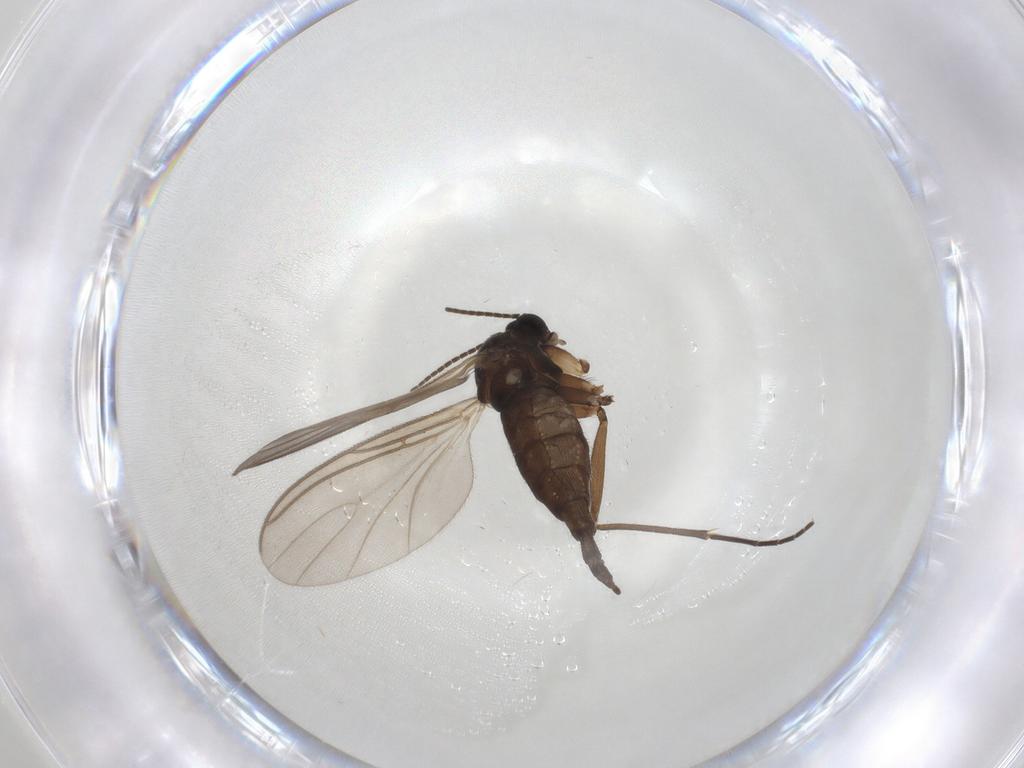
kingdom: Animalia
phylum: Arthropoda
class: Insecta
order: Diptera
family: Sciaridae
